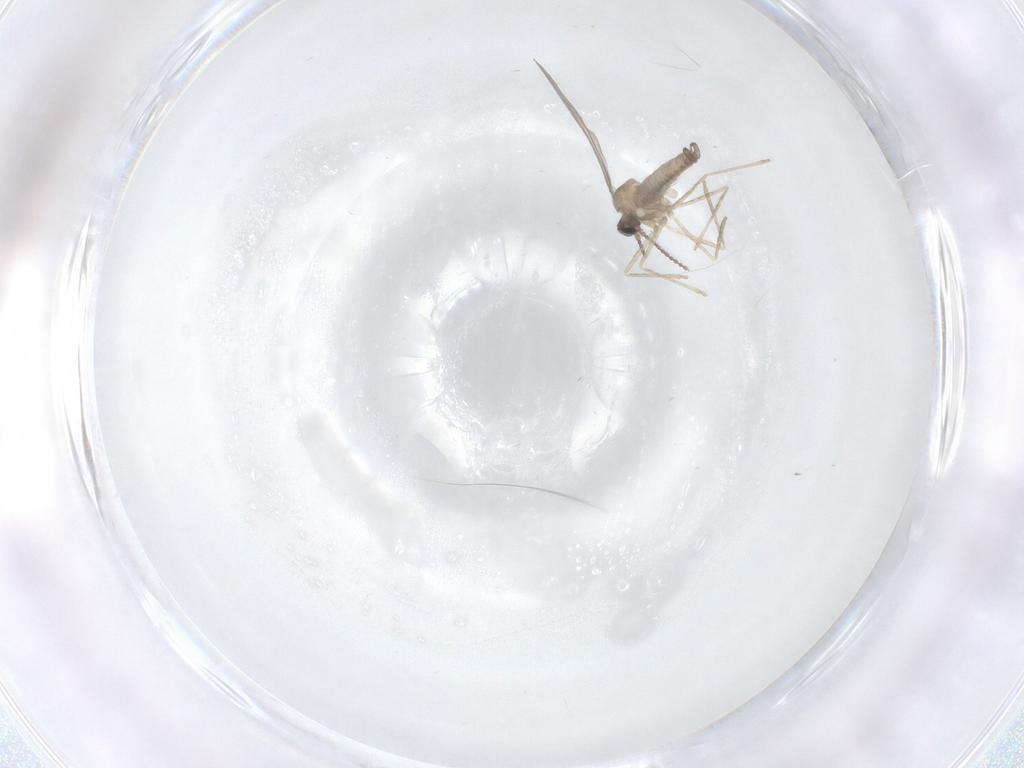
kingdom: Animalia
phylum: Arthropoda
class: Insecta
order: Diptera
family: Cecidomyiidae
